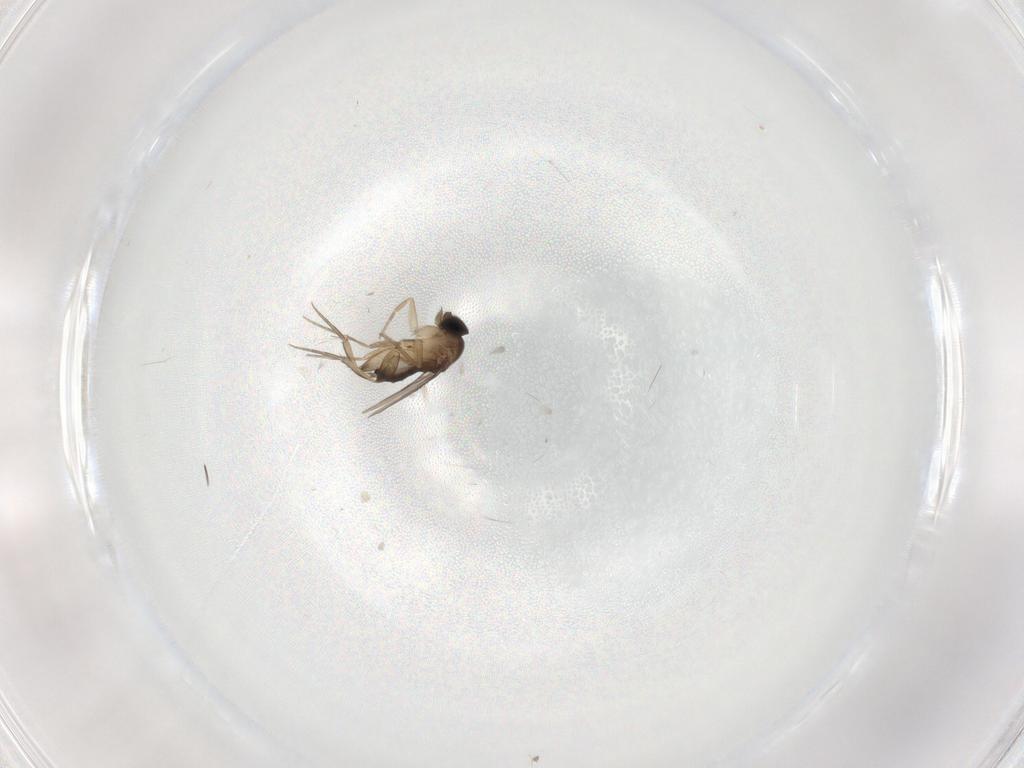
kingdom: Animalia
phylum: Arthropoda
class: Insecta
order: Diptera
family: Phoridae
